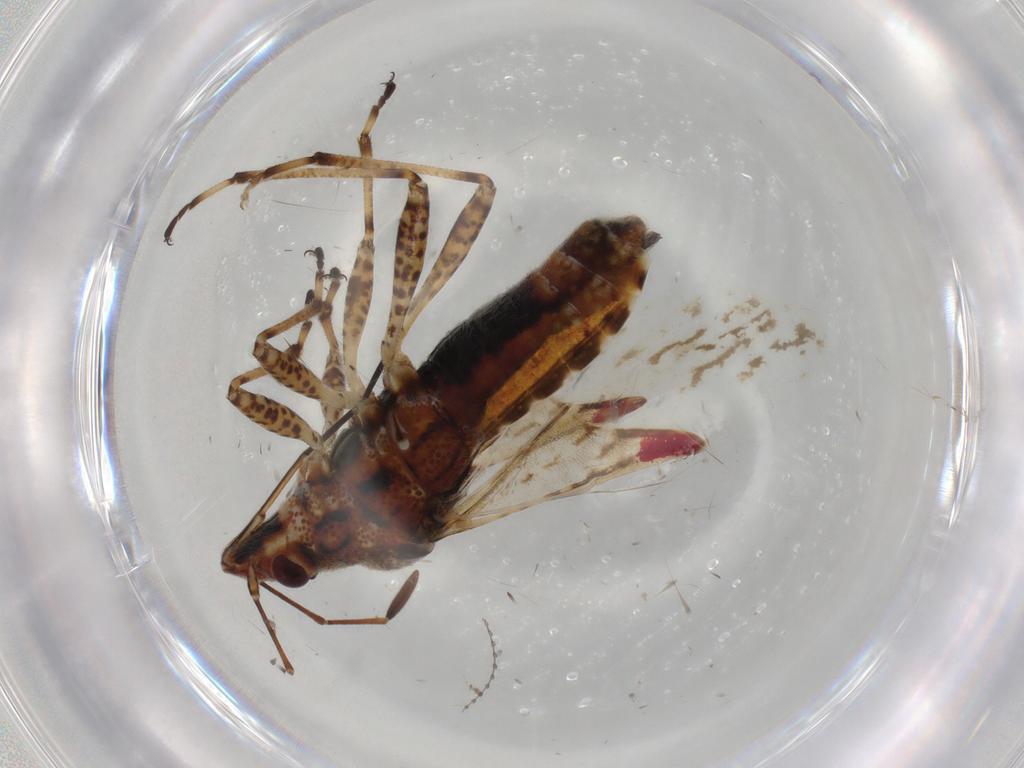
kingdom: Animalia
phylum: Arthropoda
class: Insecta
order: Hemiptera
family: Lygaeidae
